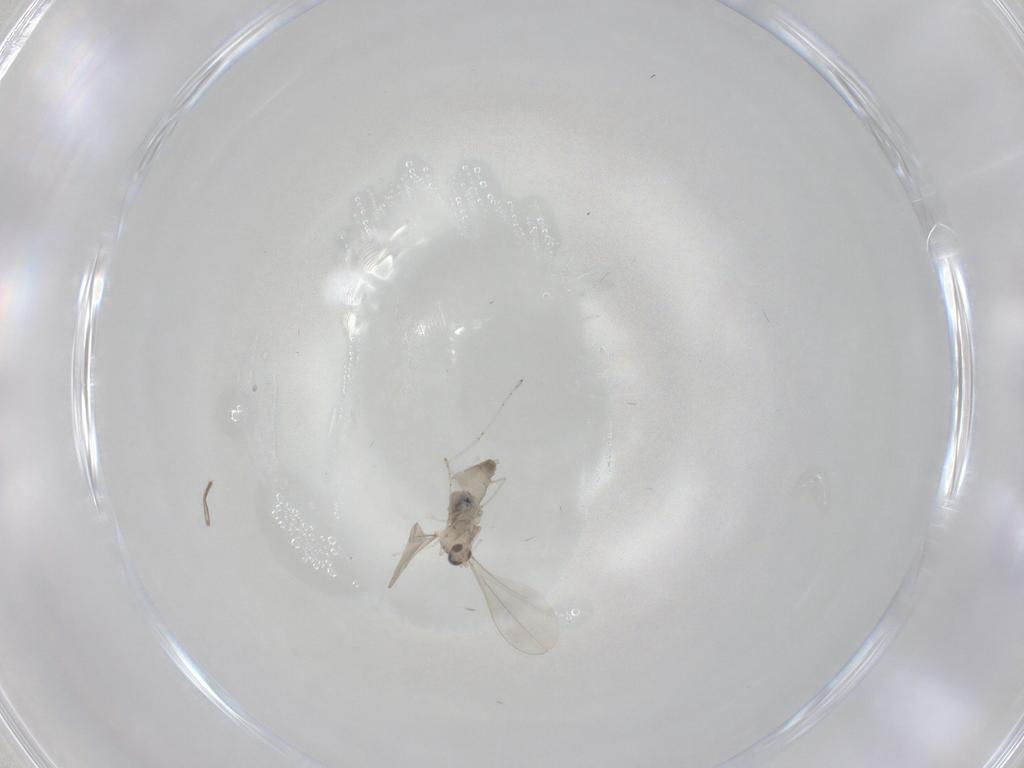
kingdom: Animalia
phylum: Arthropoda
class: Insecta
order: Diptera
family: Cecidomyiidae
